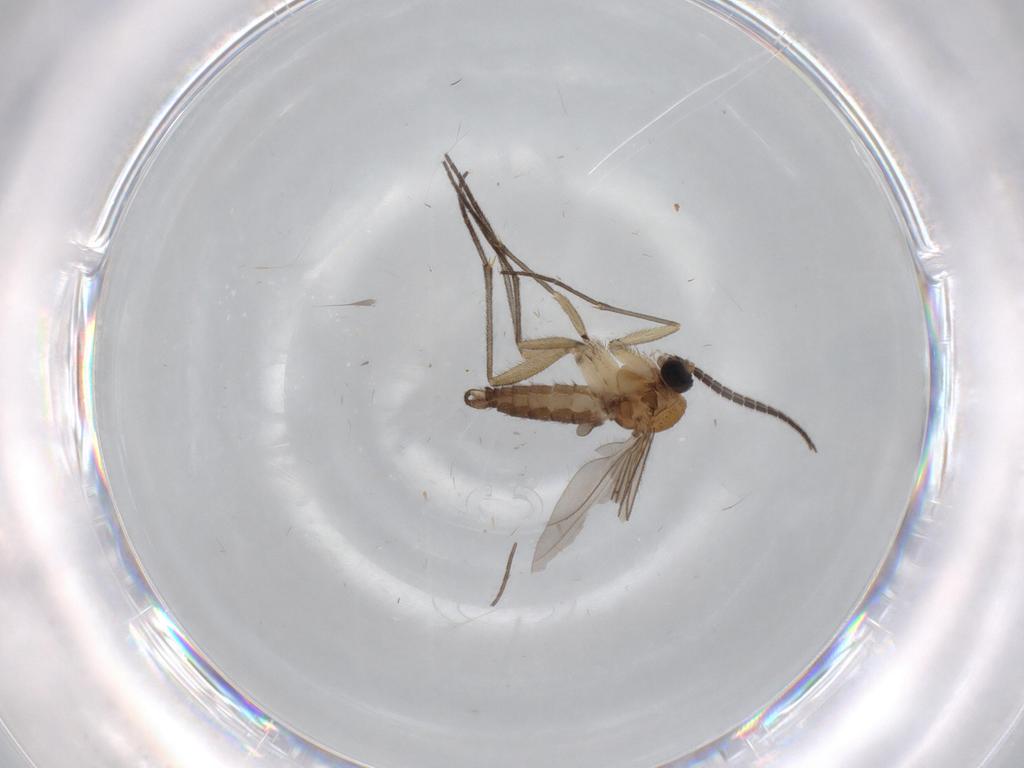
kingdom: Animalia
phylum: Arthropoda
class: Insecta
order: Diptera
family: Sciaridae
